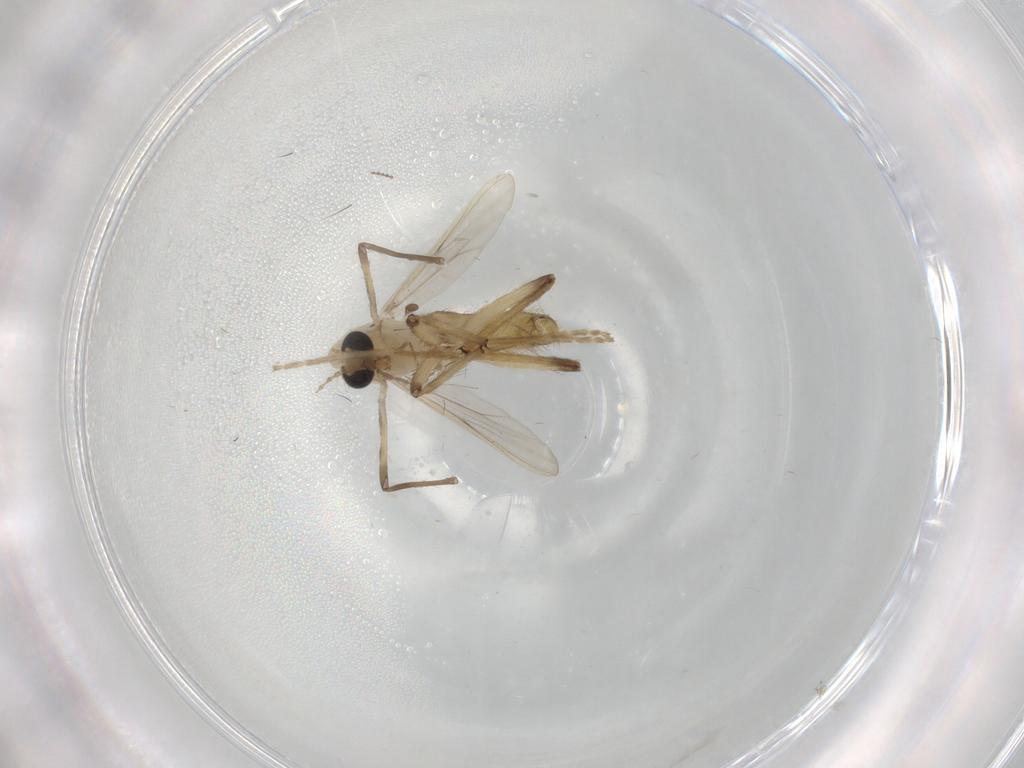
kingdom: Animalia
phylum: Arthropoda
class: Insecta
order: Diptera
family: Chironomidae
